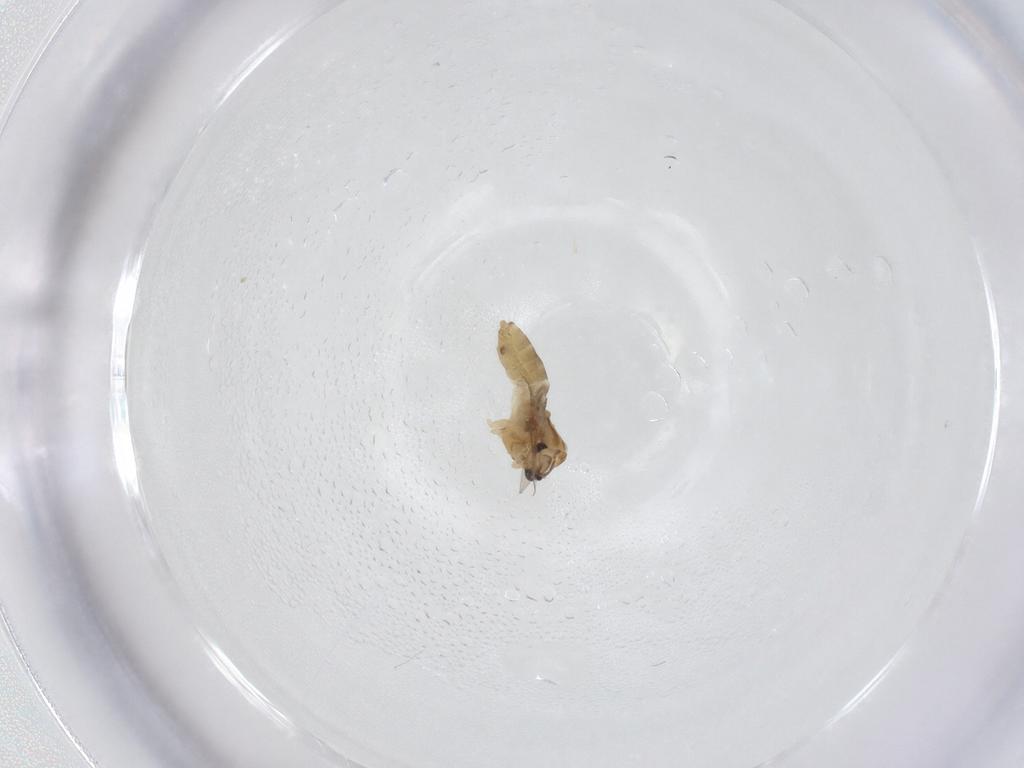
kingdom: Animalia
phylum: Arthropoda
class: Insecta
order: Diptera
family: Chironomidae
